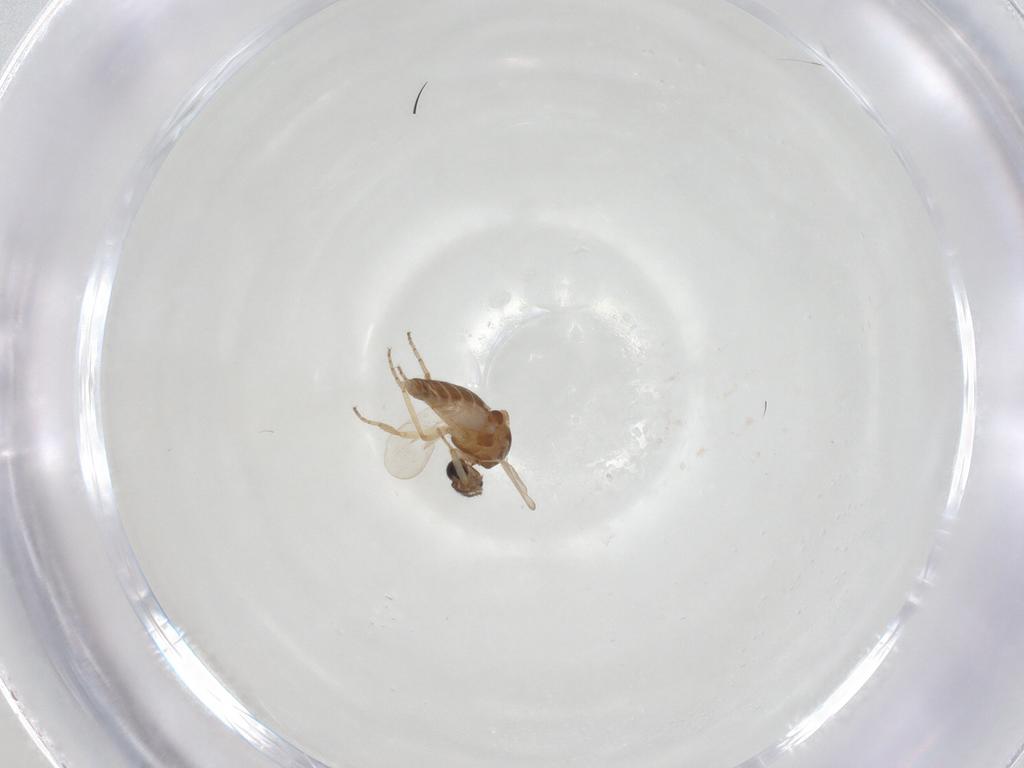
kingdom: Animalia
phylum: Arthropoda
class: Insecta
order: Diptera
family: Ceratopogonidae
